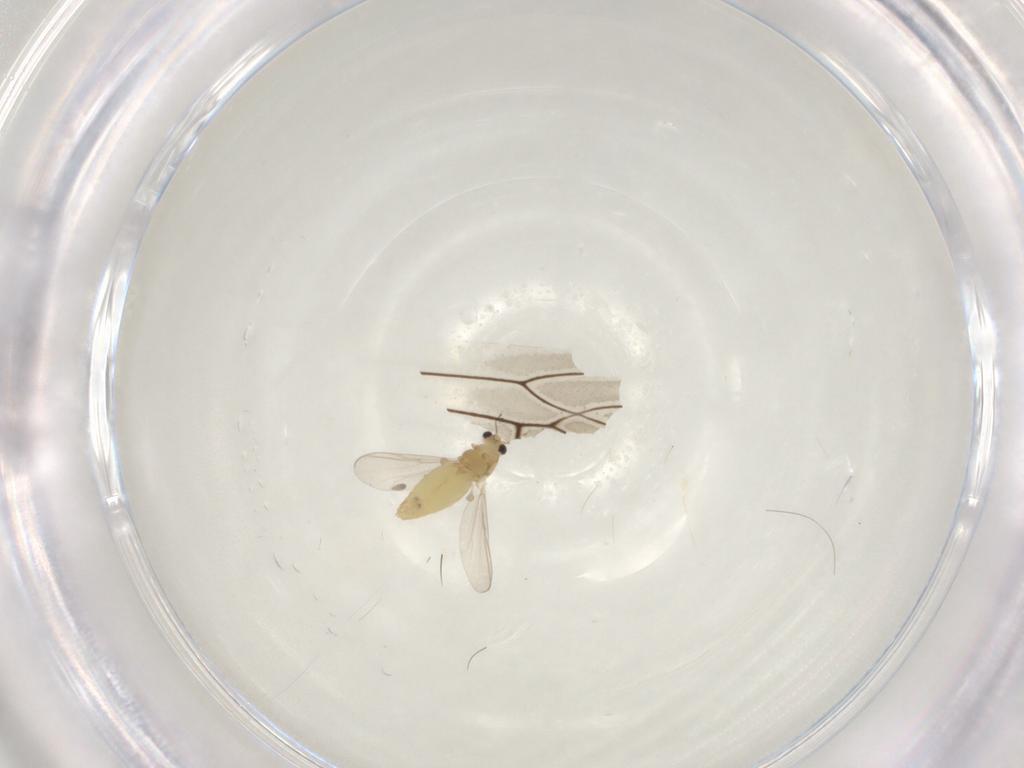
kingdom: Animalia
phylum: Arthropoda
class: Insecta
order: Diptera
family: Chironomidae
